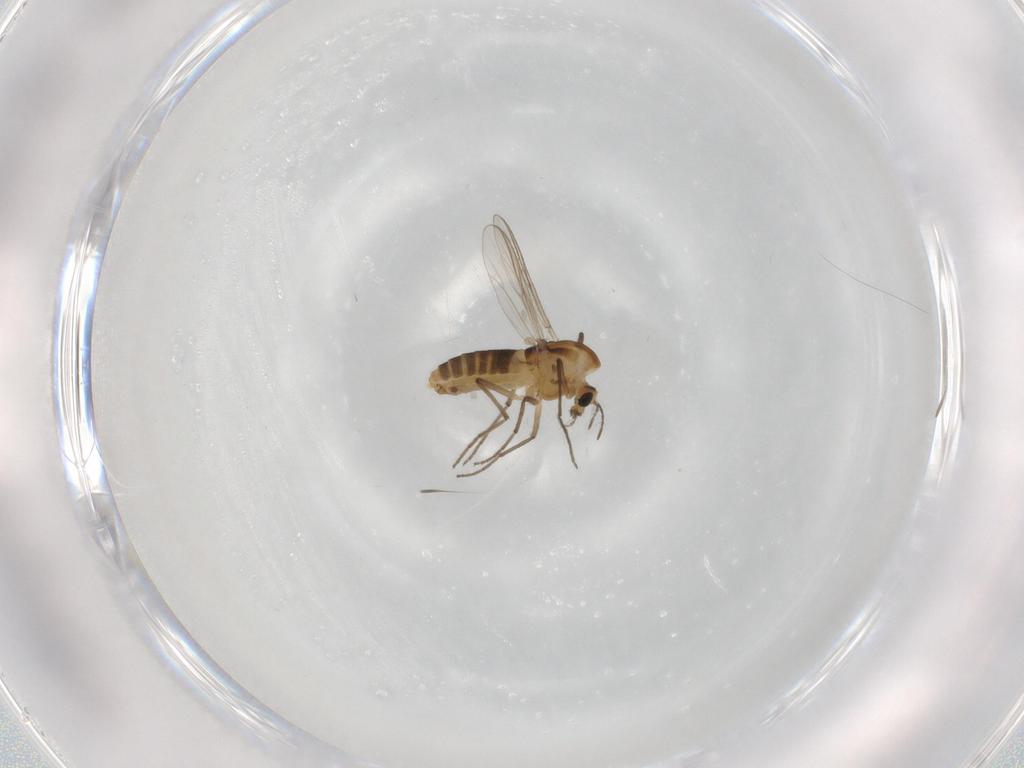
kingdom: Animalia
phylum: Arthropoda
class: Insecta
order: Diptera
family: Chironomidae
